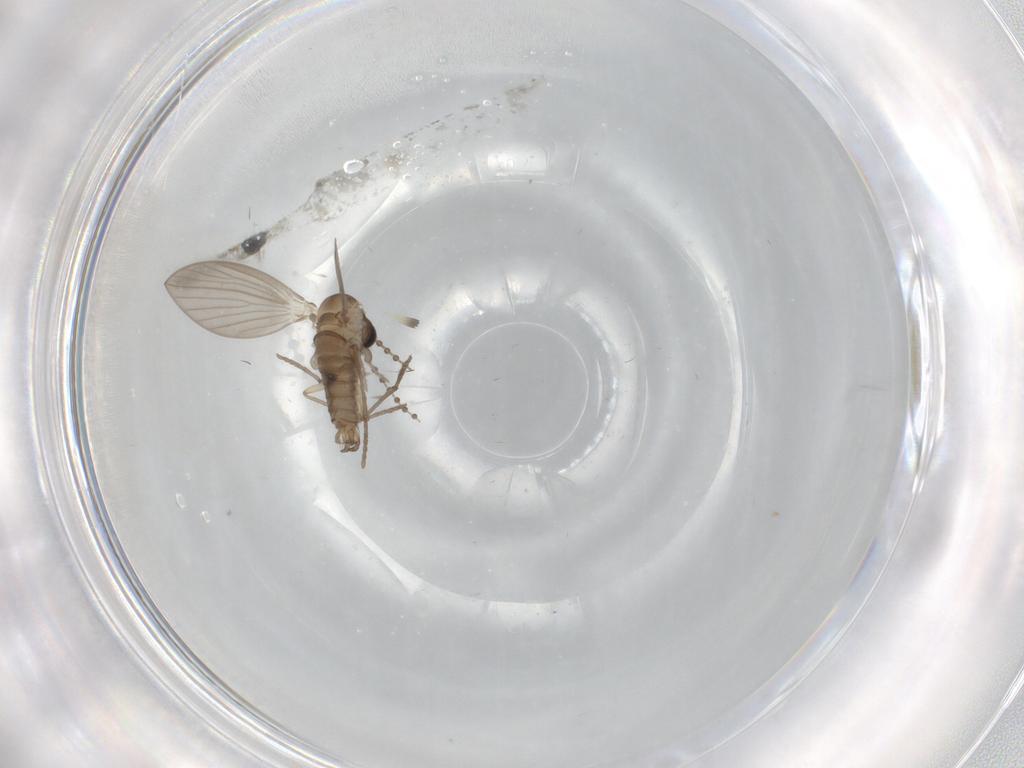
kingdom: Animalia
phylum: Arthropoda
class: Insecta
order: Diptera
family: Psychodidae
